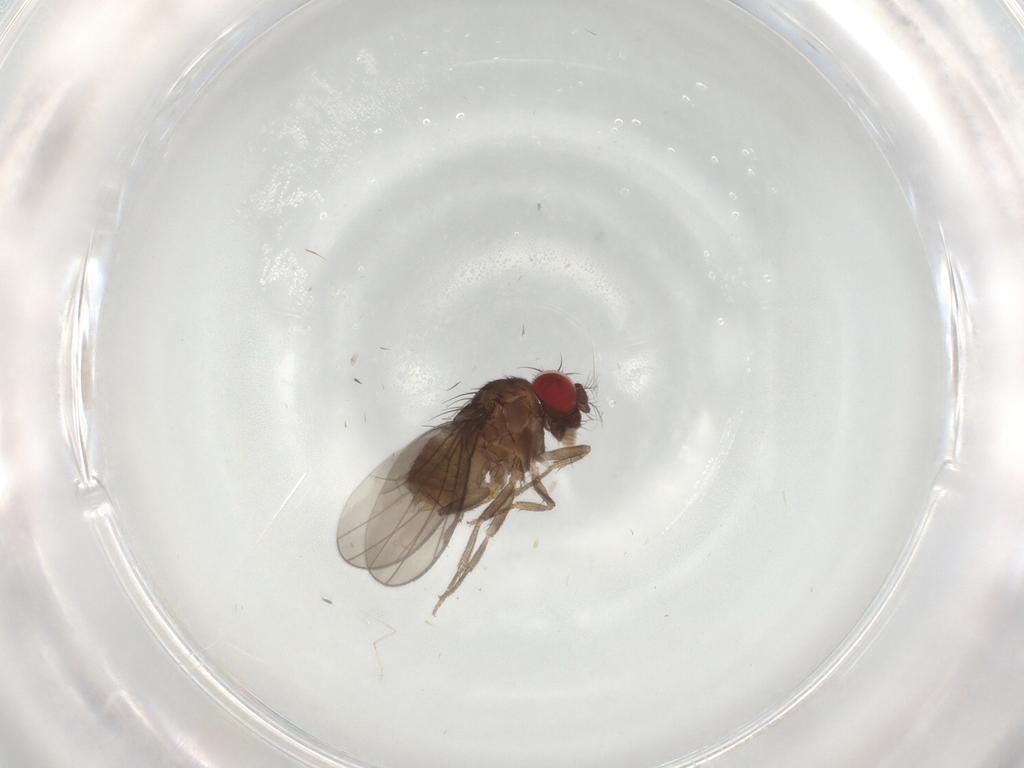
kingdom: Animalia
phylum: Arthropoda
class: Insecta
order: Diptera
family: Cecidomyiidae
